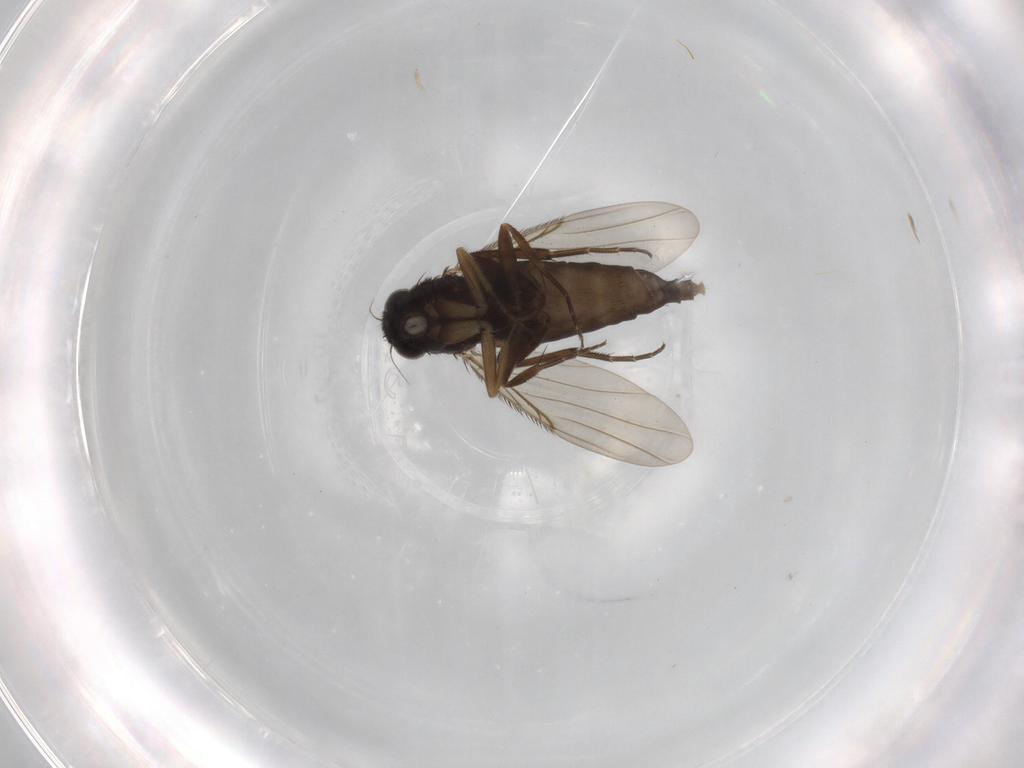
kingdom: Animalia
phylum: Arthropoda
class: Insecta
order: Diptera
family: Phoridae
